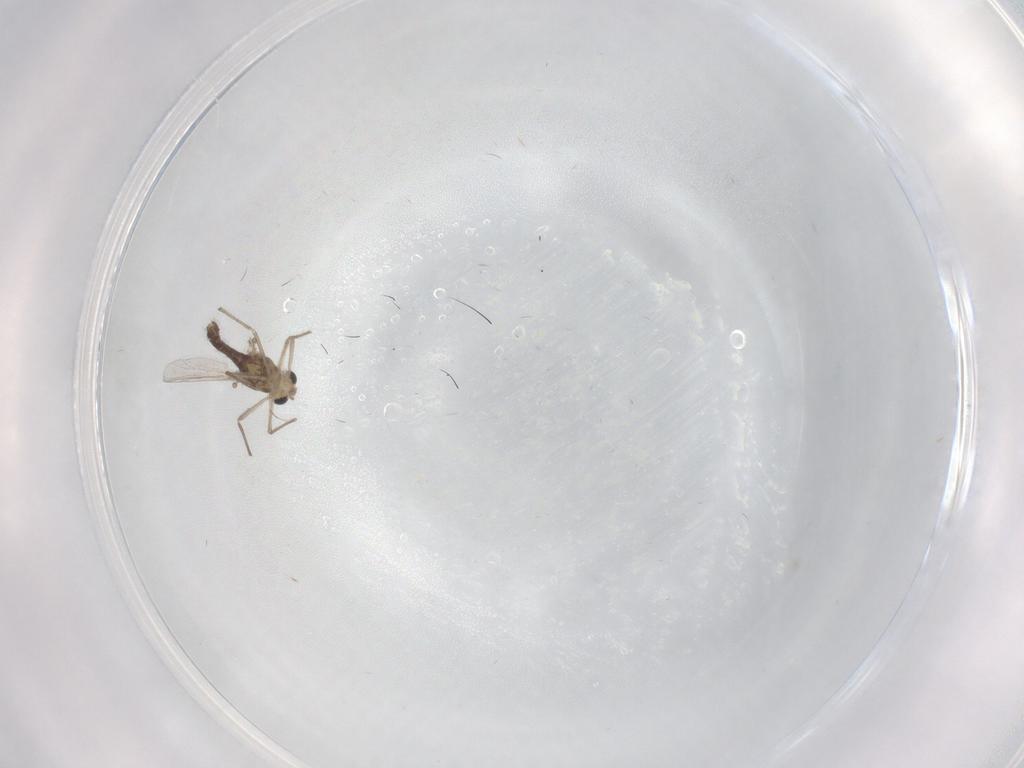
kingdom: Animalia
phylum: Arthropoda
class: Insecta
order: Diptera
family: Chironomidae
